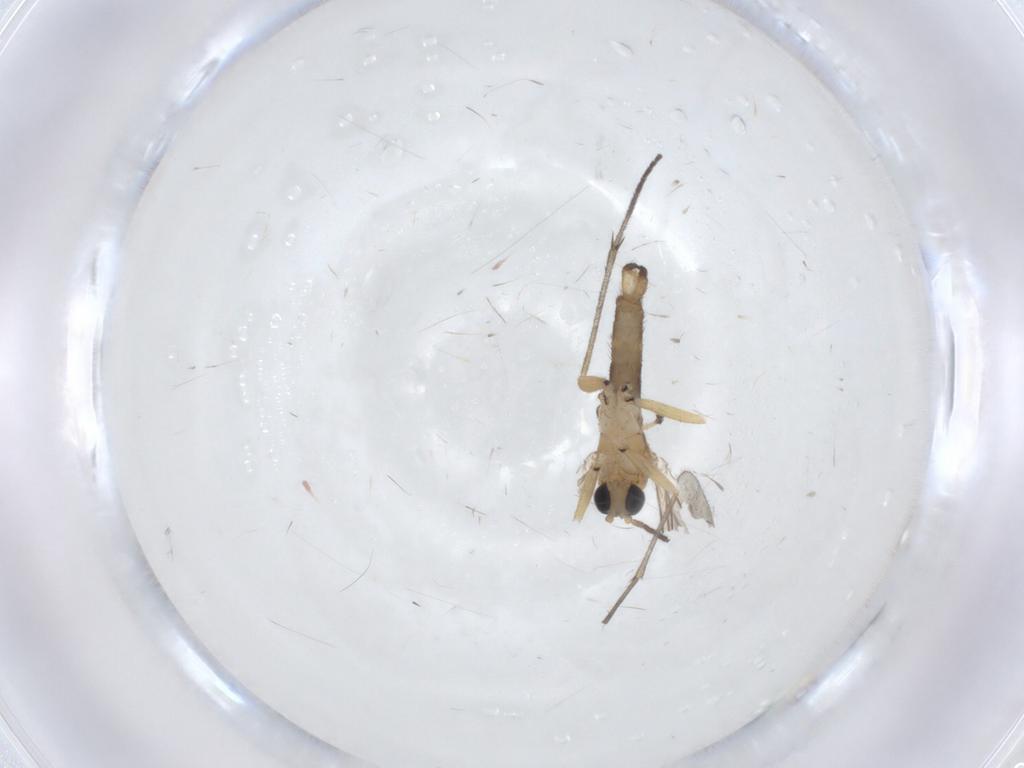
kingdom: Animalia
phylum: Arthropoda
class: Insecta
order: Diptera
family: Sciaridae
